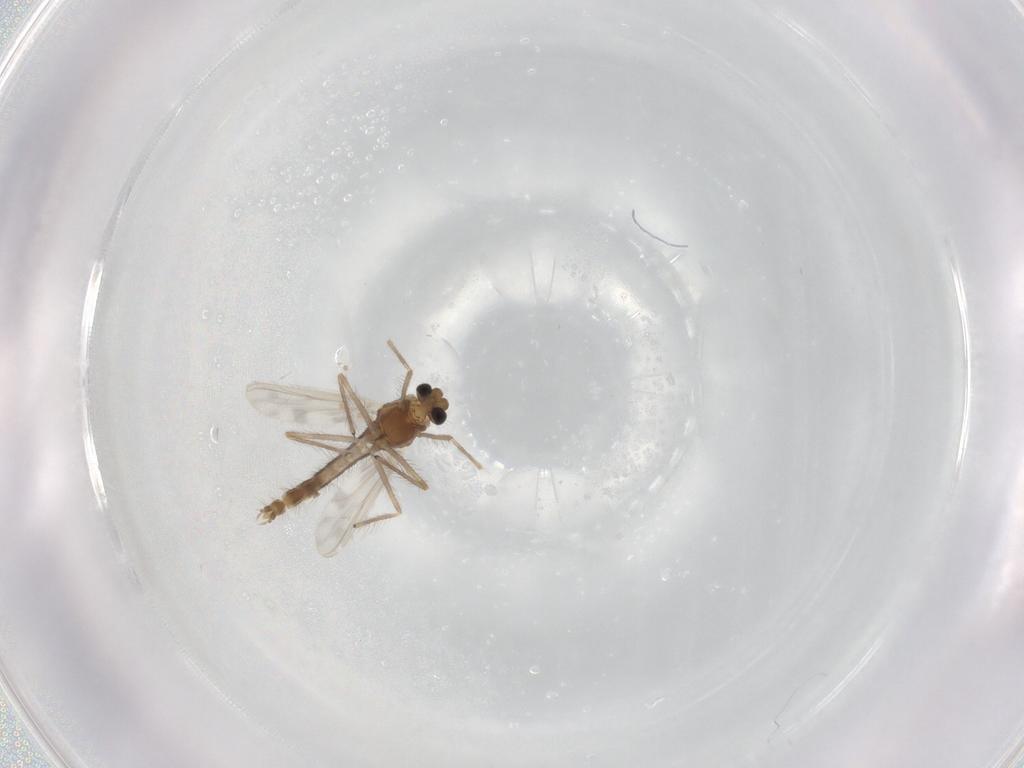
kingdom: Animalia
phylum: Arthropoda
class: Insecta
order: Diptera
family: Chironomidae
